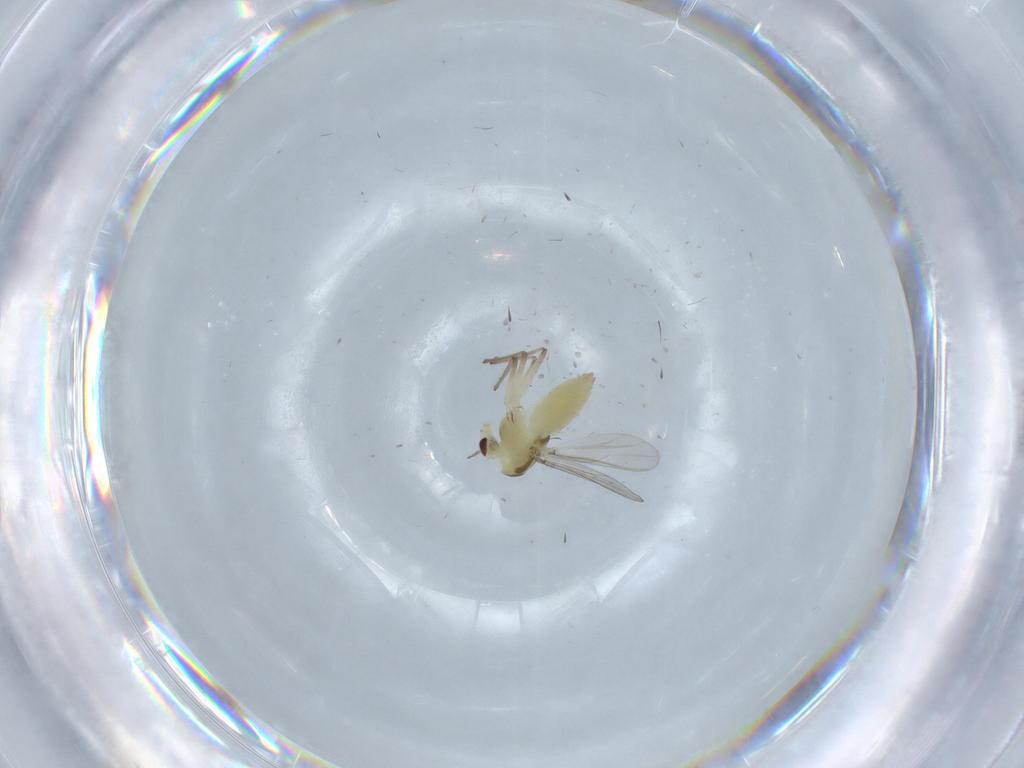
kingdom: Animalia
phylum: Arthropoda
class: Insecta
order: Diptera
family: Chironomidae
